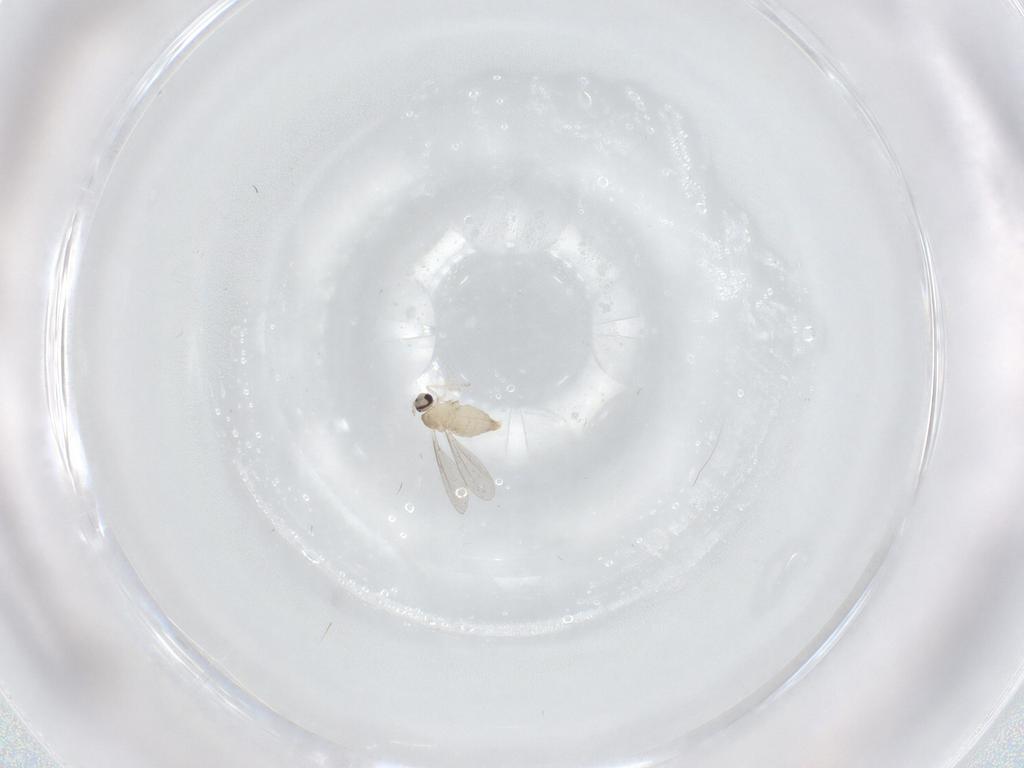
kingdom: Animalia
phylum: Arthropoda
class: Insecta
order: Diptera
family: Cecidomyiidae
